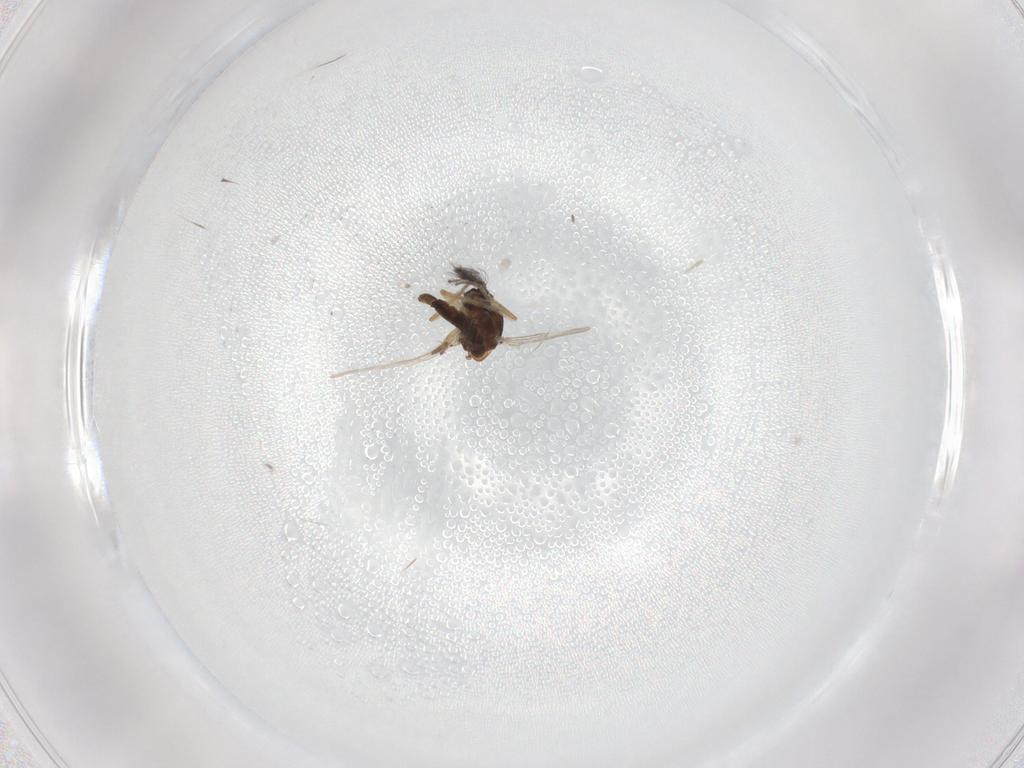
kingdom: Animalia
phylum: Arthropoda
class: Insecta
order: Diptera
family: Ceratopogonidae
